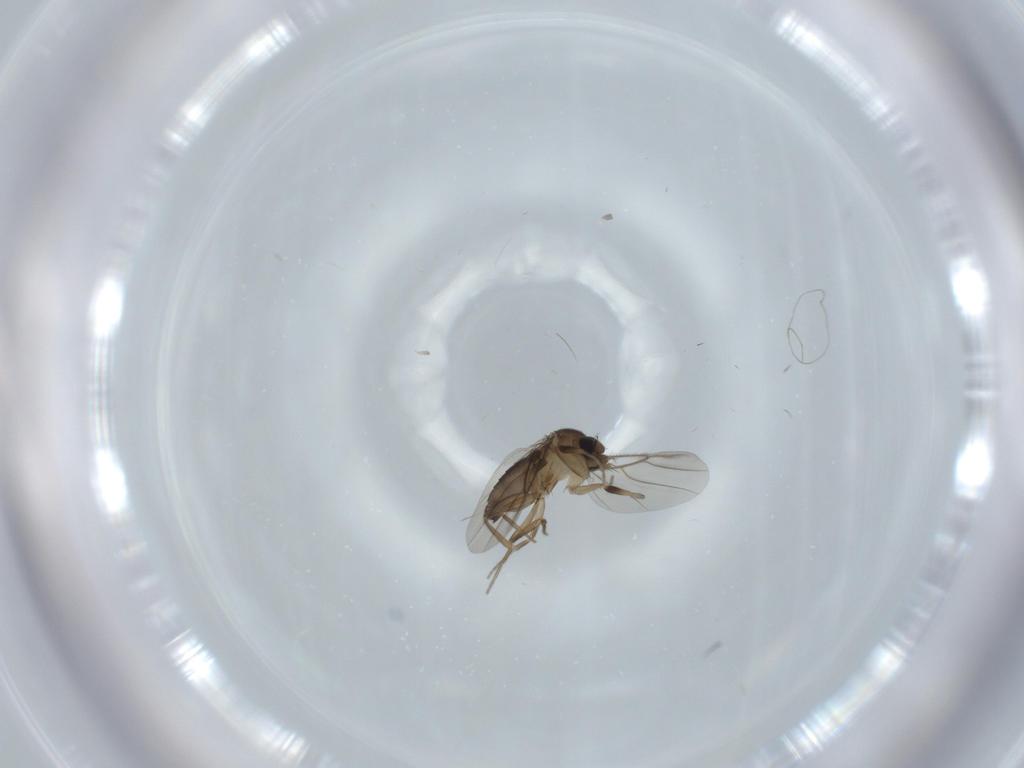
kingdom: Animalia
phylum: Arthropoda
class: Insecta
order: Diptera
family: Phoridae
